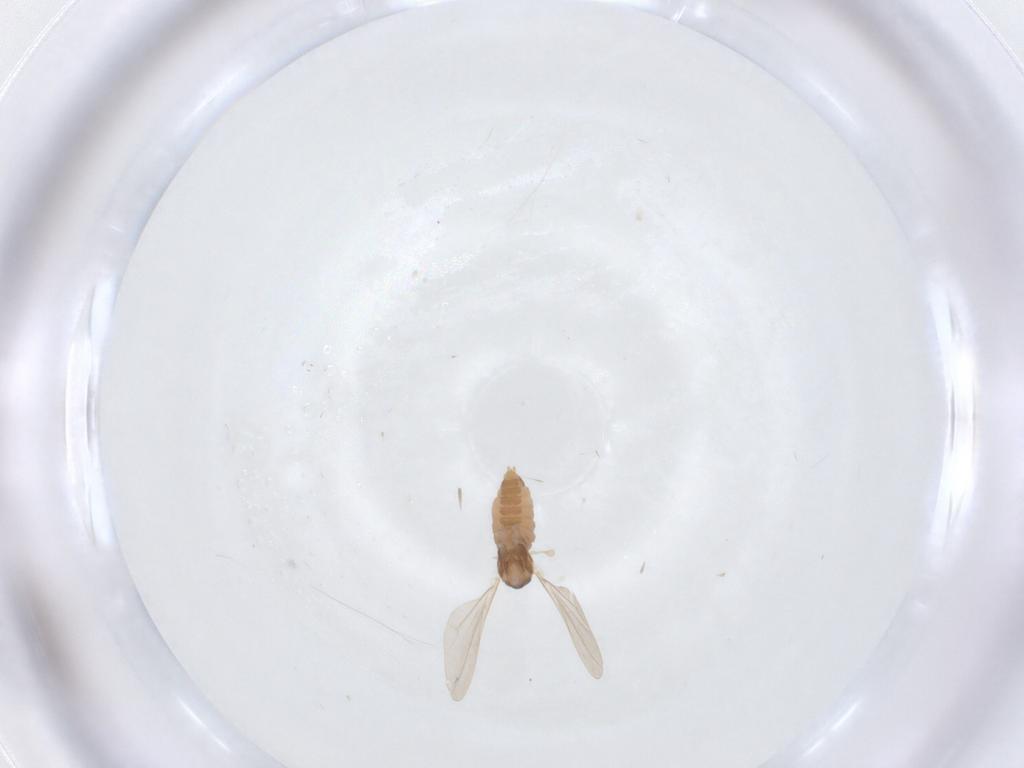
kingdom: Animalia
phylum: Arthropoda
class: Insecta
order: Diptera
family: Cecidomyiidae
